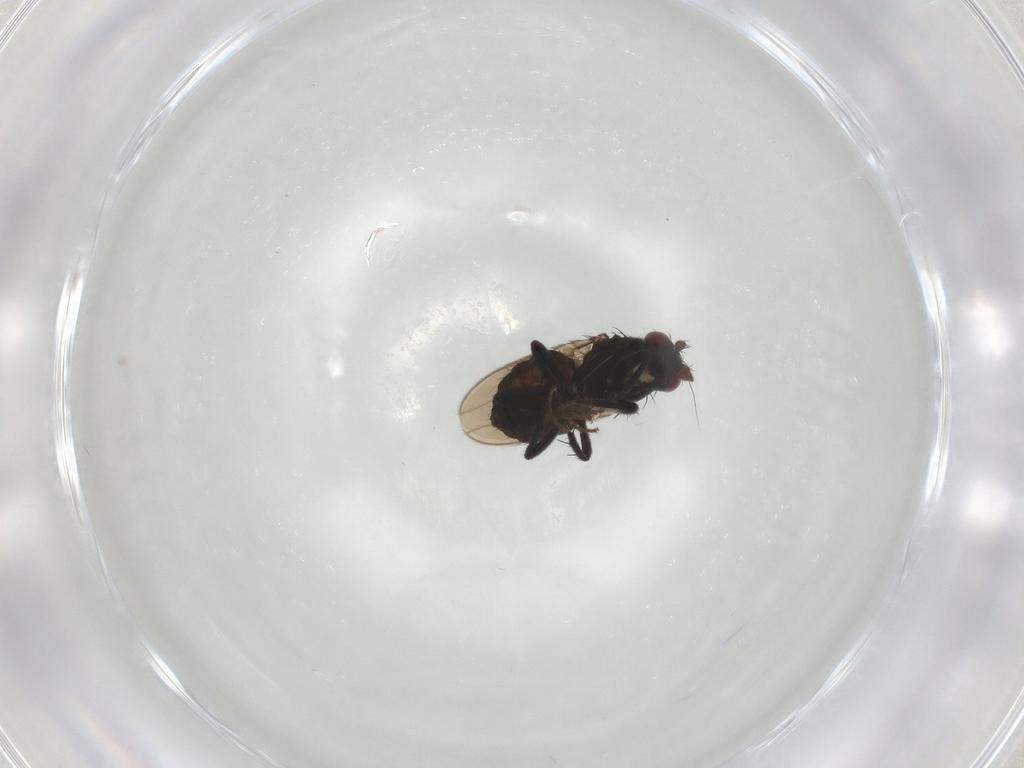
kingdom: Animalia
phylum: Arthropoda
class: Insecta
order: Diptera
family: Sphaeroceridae
